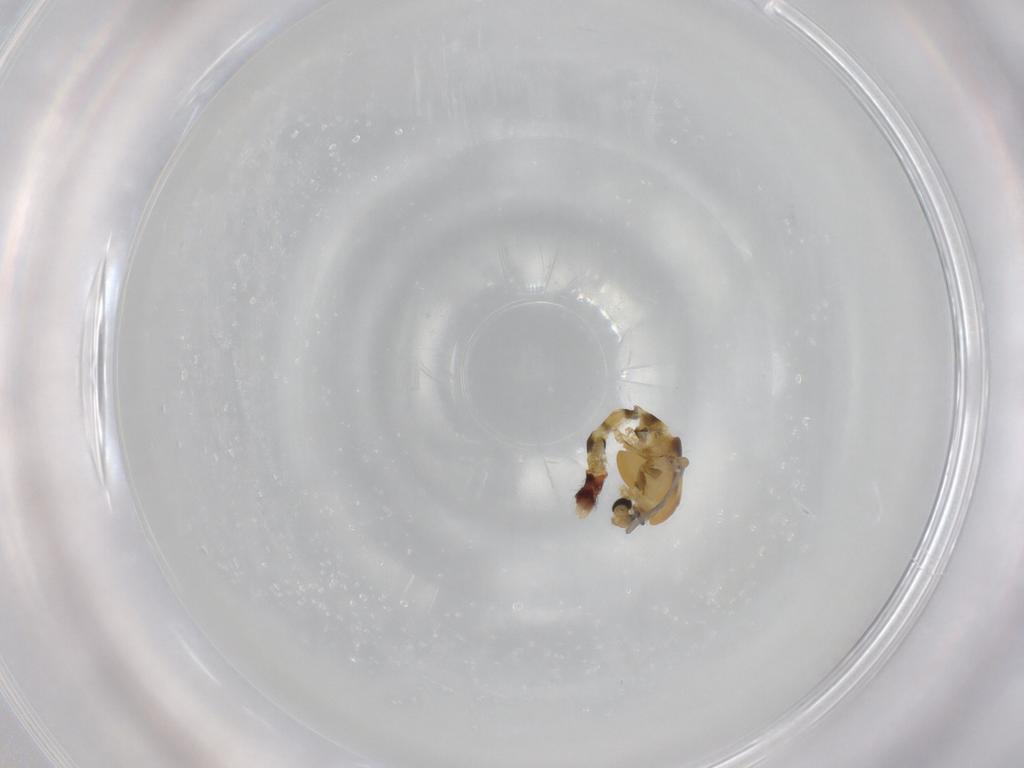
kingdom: Animalia
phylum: Arthropoda
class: Insecta
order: Diptera
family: Chironomidae
